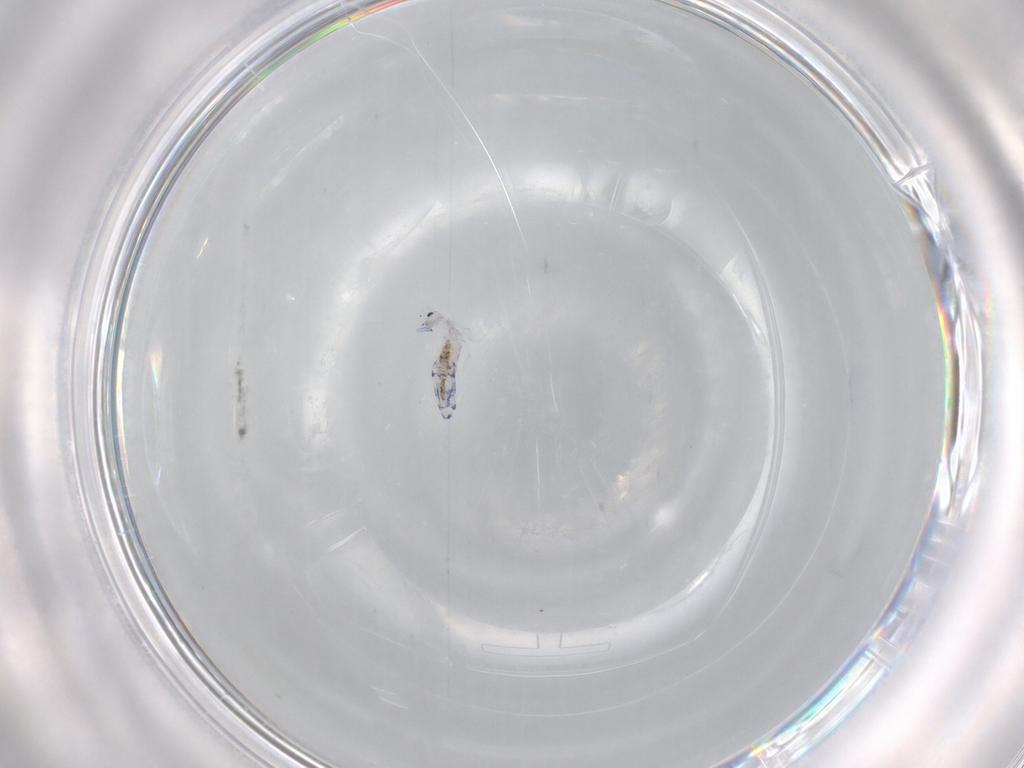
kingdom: Animalia
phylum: Arthropoda
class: Collembola
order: Entomobryomorpha
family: Entomobryidae
